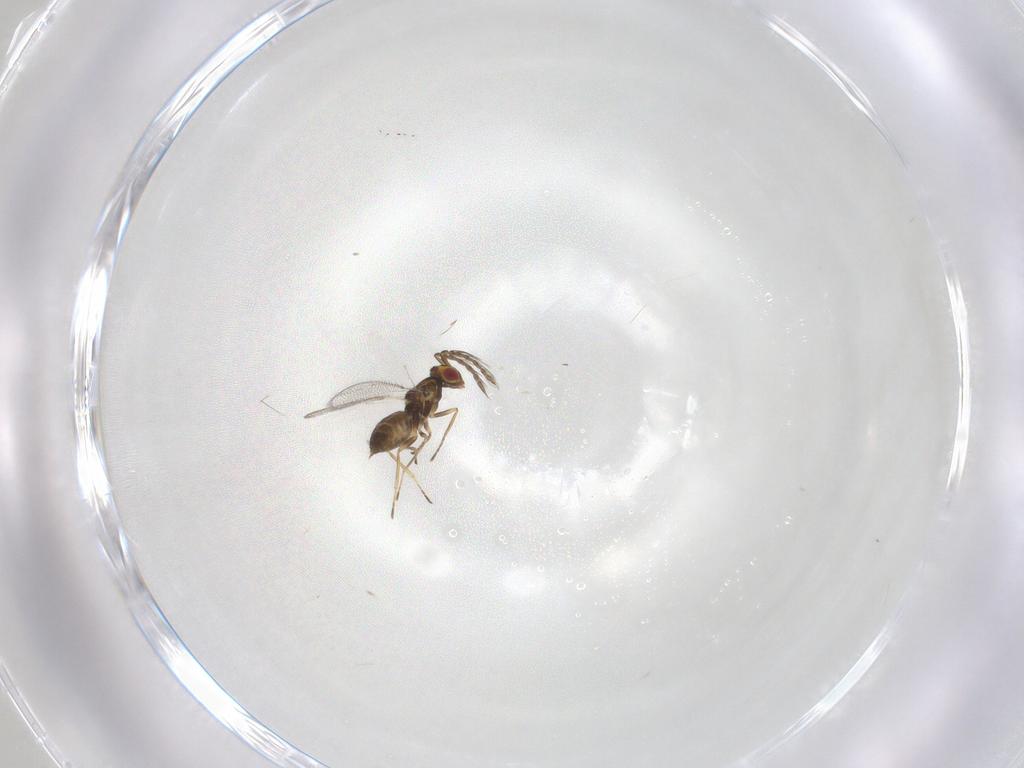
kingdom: Animalia
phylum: Arthropoda
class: Insecta
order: Hymenoptera
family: Eulophidae
